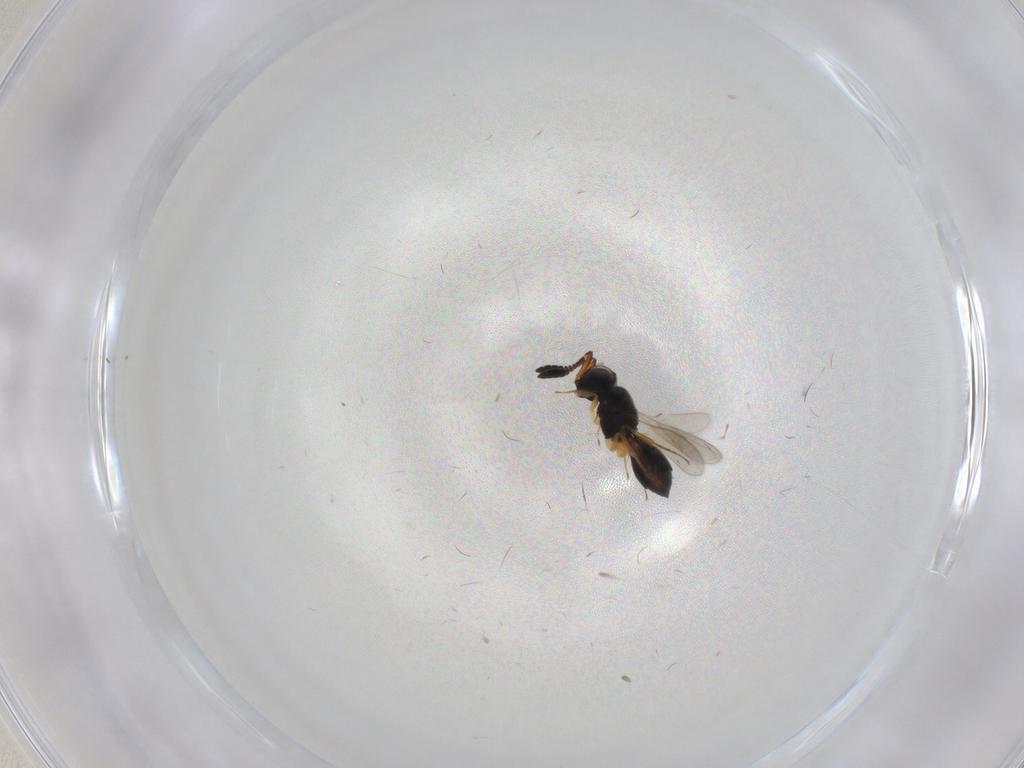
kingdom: Animalia
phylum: Arthropoda
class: Insecta
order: Hymenoptera
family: Scelionidae
